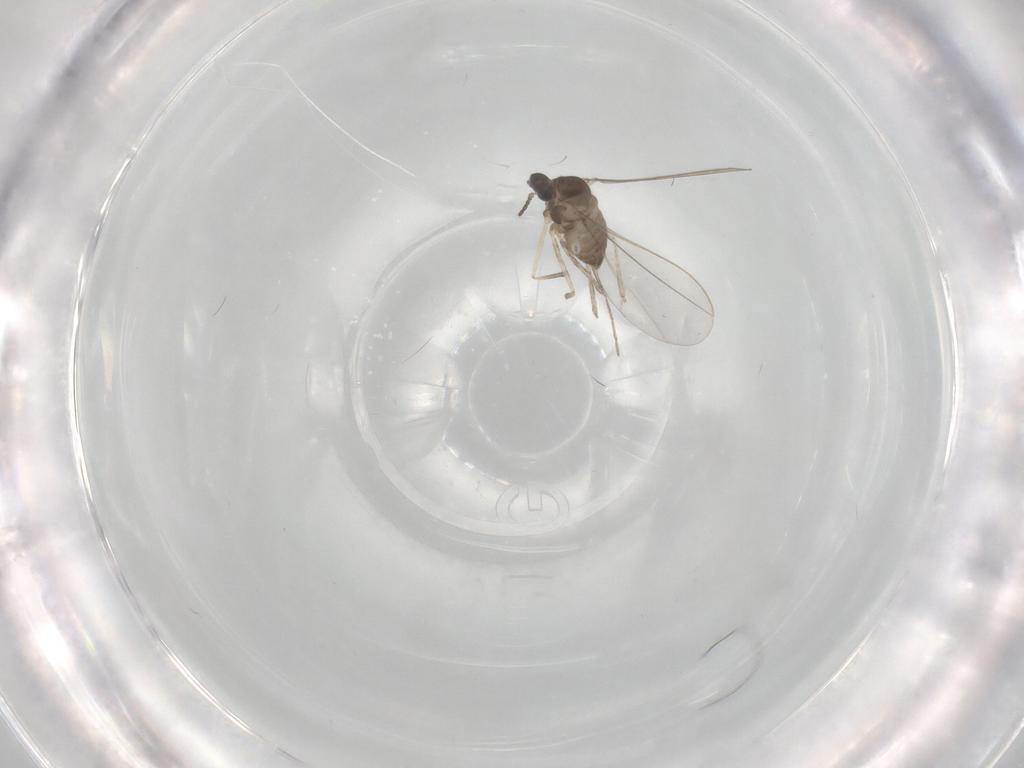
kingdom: Animalia
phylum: Arthropoda
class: Insecta
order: Diptera
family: Cecidomyiidae
